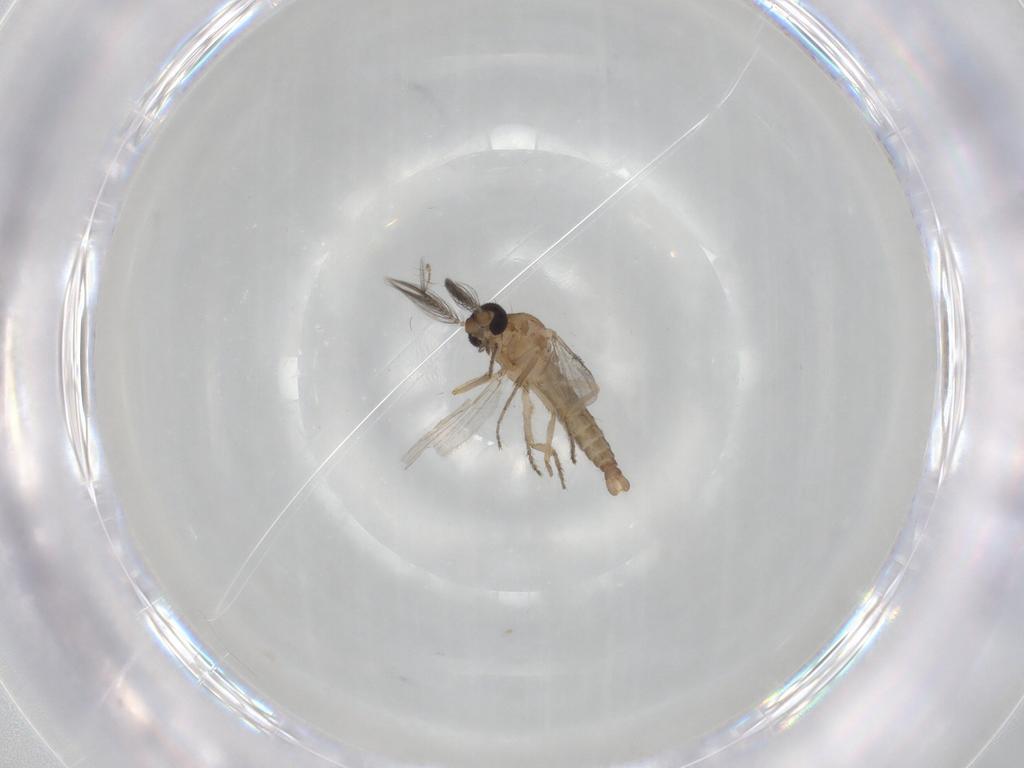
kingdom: Animalia
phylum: Arthropoda
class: Insecta
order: Diptera
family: Ceratopogonidae
